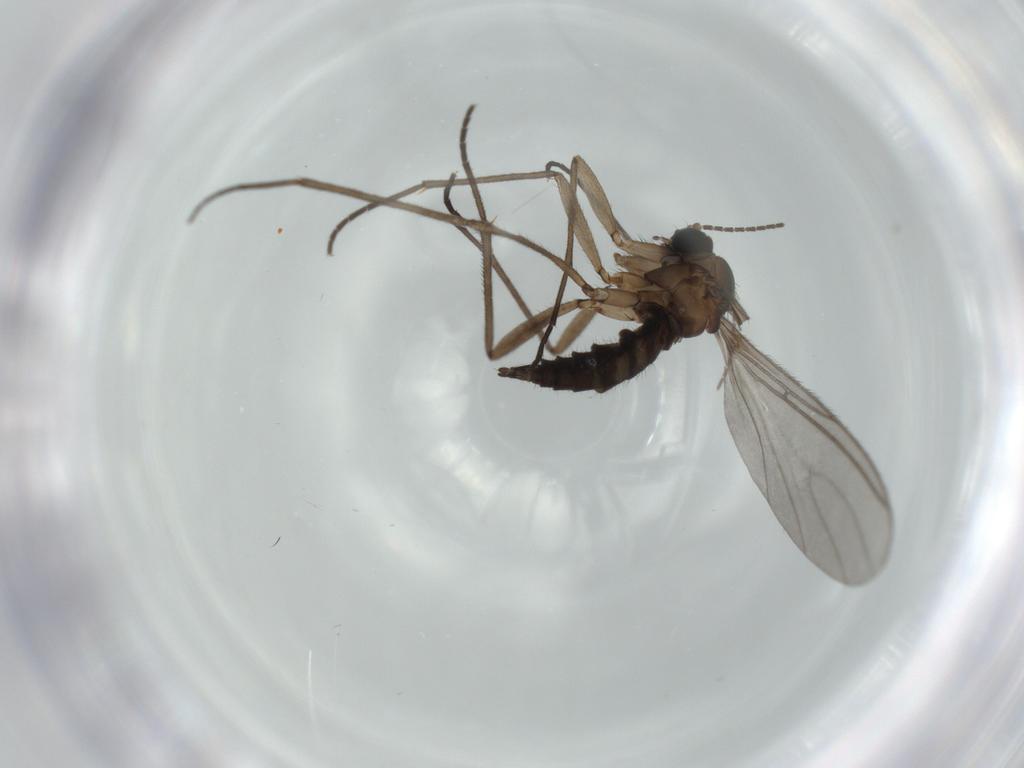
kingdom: Animalia
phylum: Arthropoda
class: Insecta
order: Diptera
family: Sciaridae
